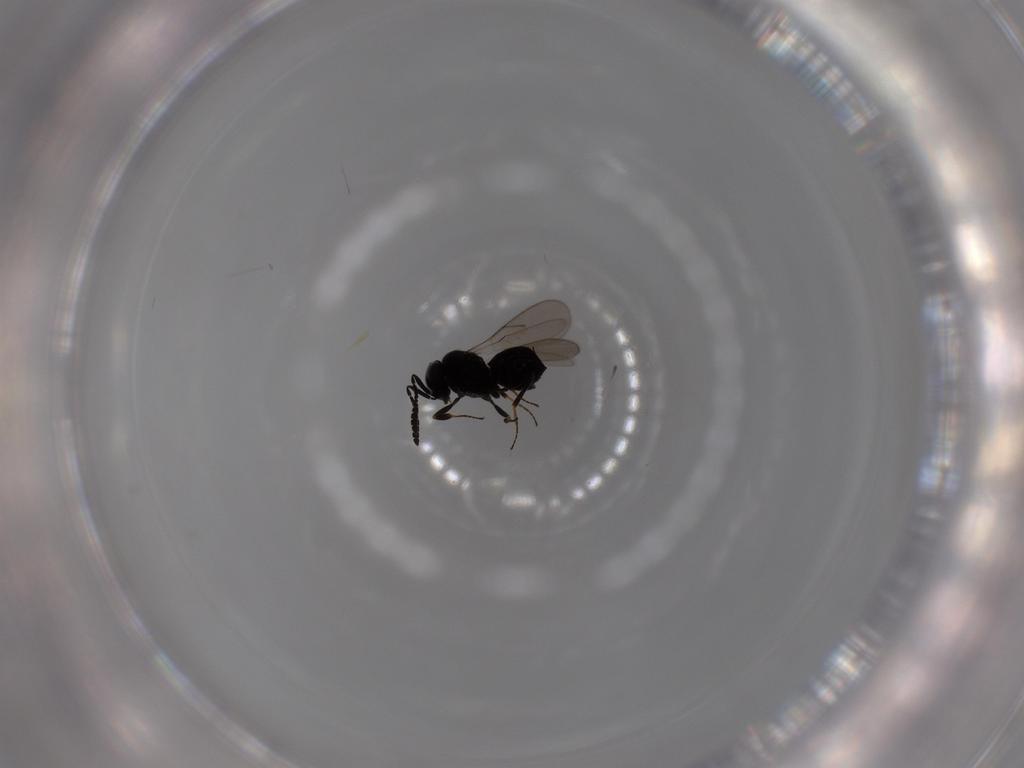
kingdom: Animalia
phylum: Arthropoda
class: Insecta
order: Hymenoptera
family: Scelionidae
